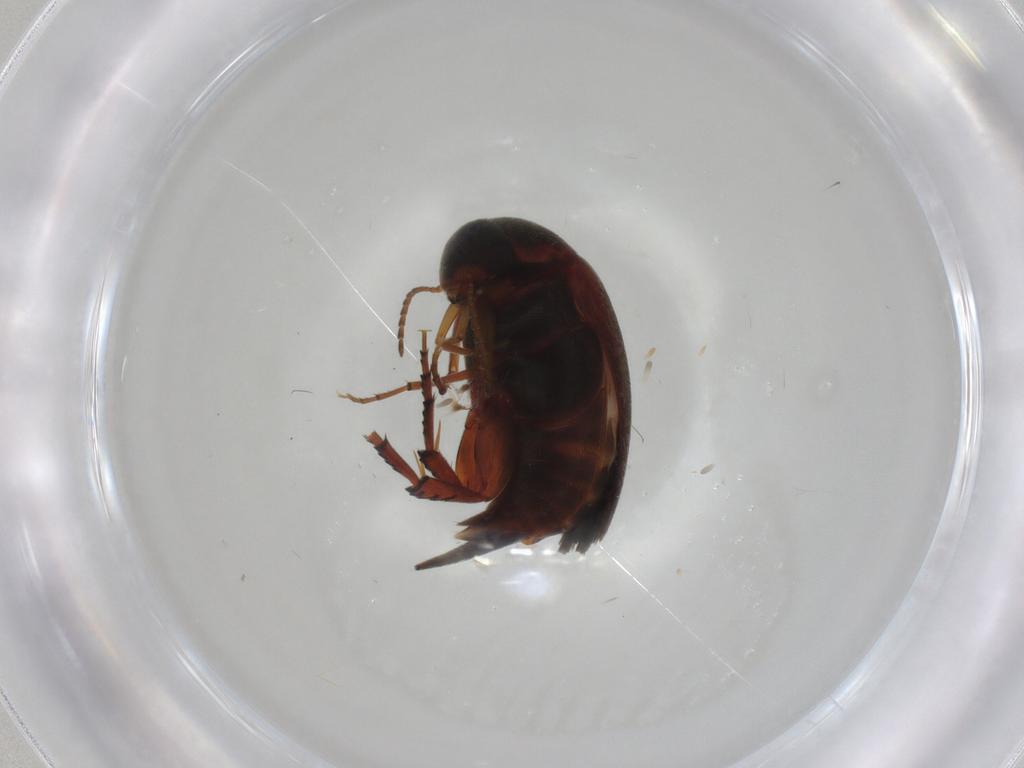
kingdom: Animalia
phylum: Arthropoda
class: Insecta
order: Coleoptera
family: Mordellidae
